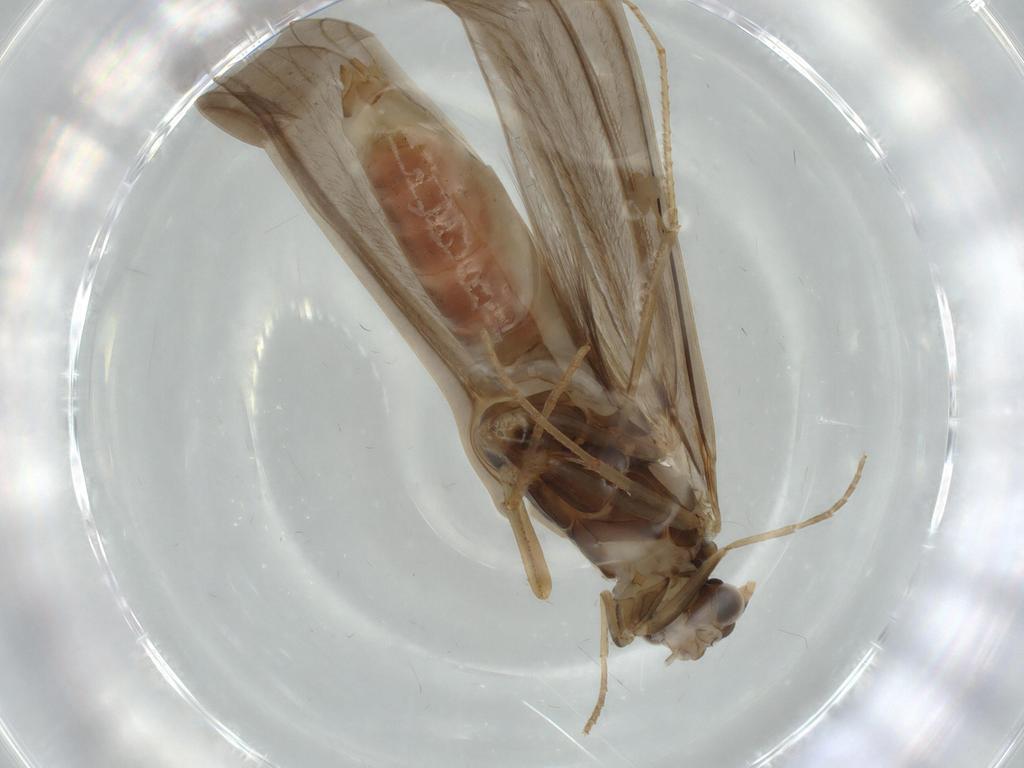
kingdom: Animalia
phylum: Arthropoda
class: Insecta
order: Trichoptera
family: Leptoceridae
